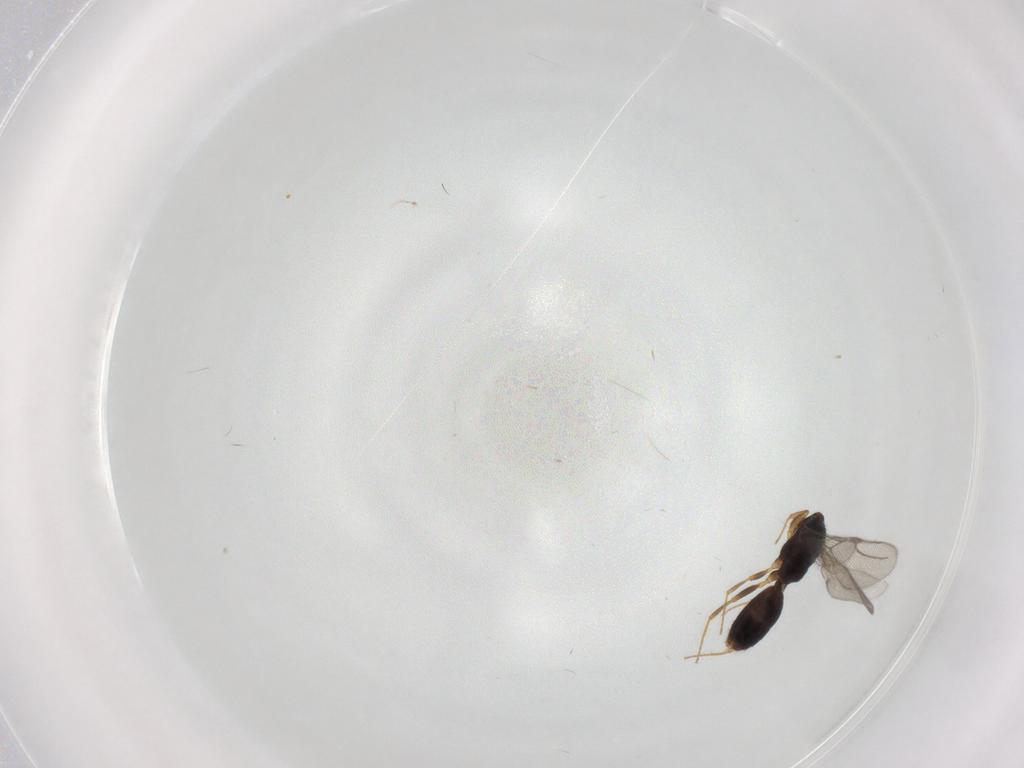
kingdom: Animalia
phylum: Arthropoda
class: Insecta
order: Hymenoptera
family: Bethylidae
